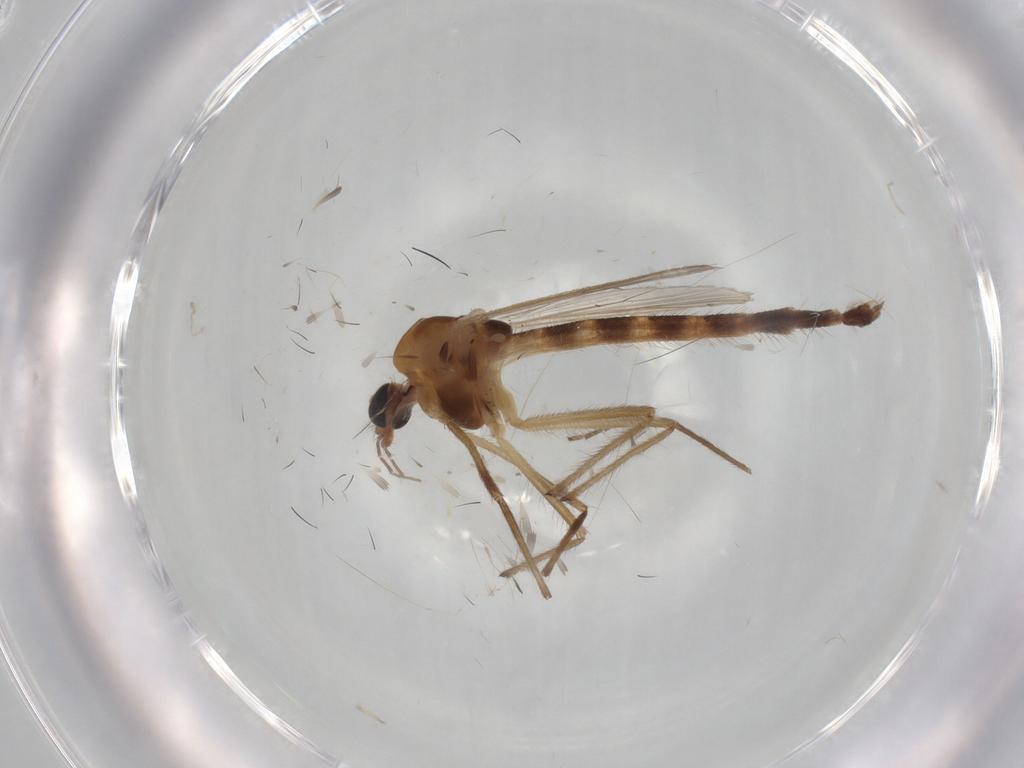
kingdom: Animalia
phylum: Arthropoda
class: Insecta
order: Diptera
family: Chironomidae
